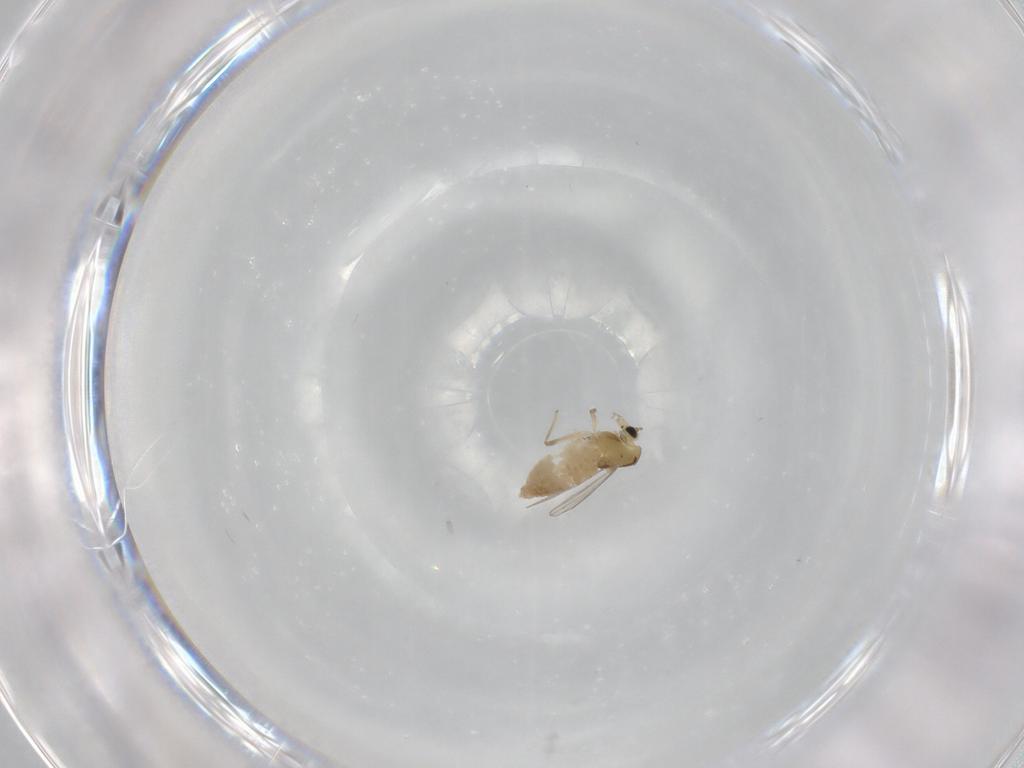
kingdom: Animalia
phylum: Arthropoda
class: Insecta
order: Diptera
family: Chironomidae
